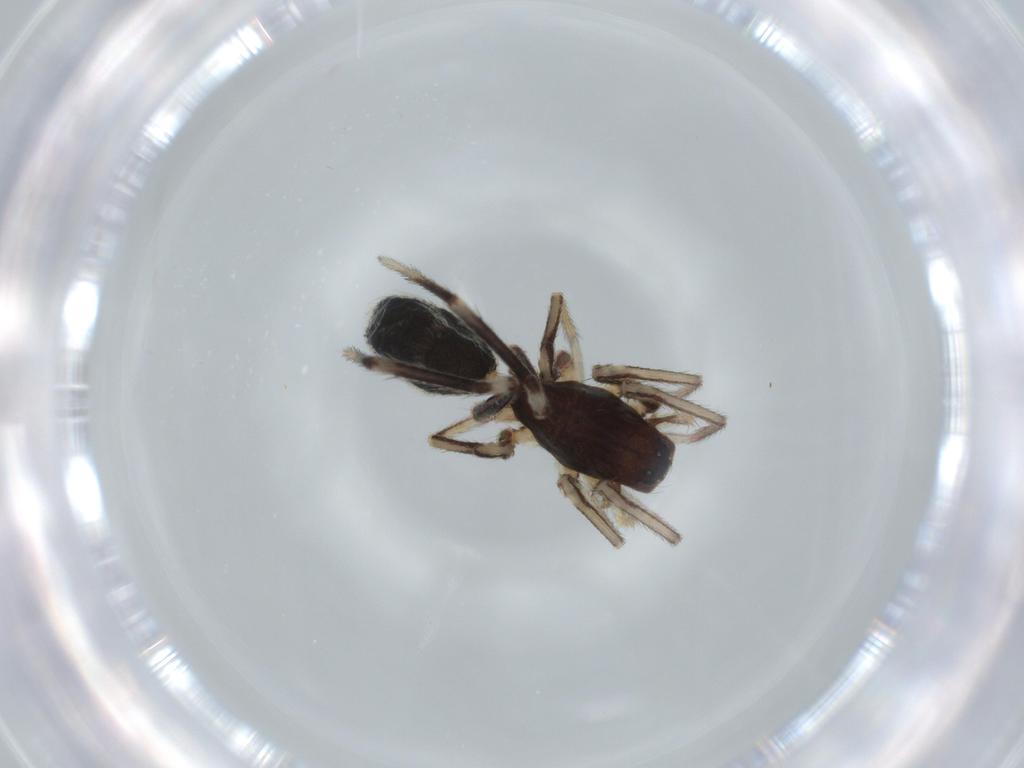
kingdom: Animalia
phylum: Arthropoda
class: Arachnida
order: Araneae
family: Corinnidae
